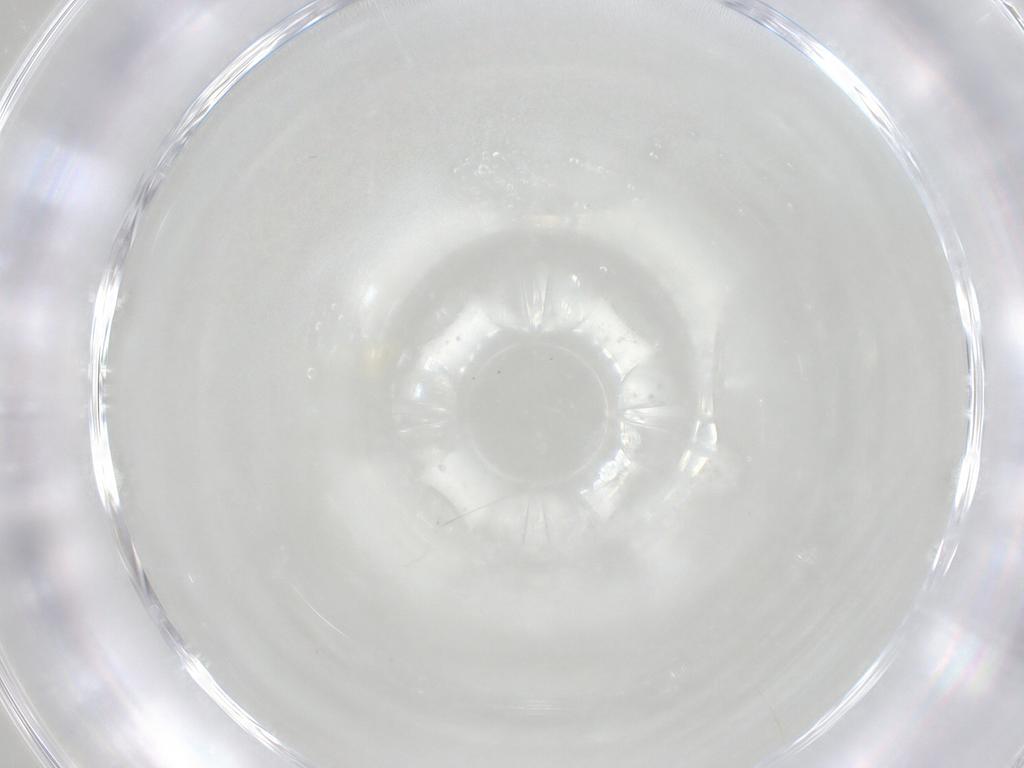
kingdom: Animalia
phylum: Arthropoda
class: Arachnida
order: Trombidiformes
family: Eupodidae
